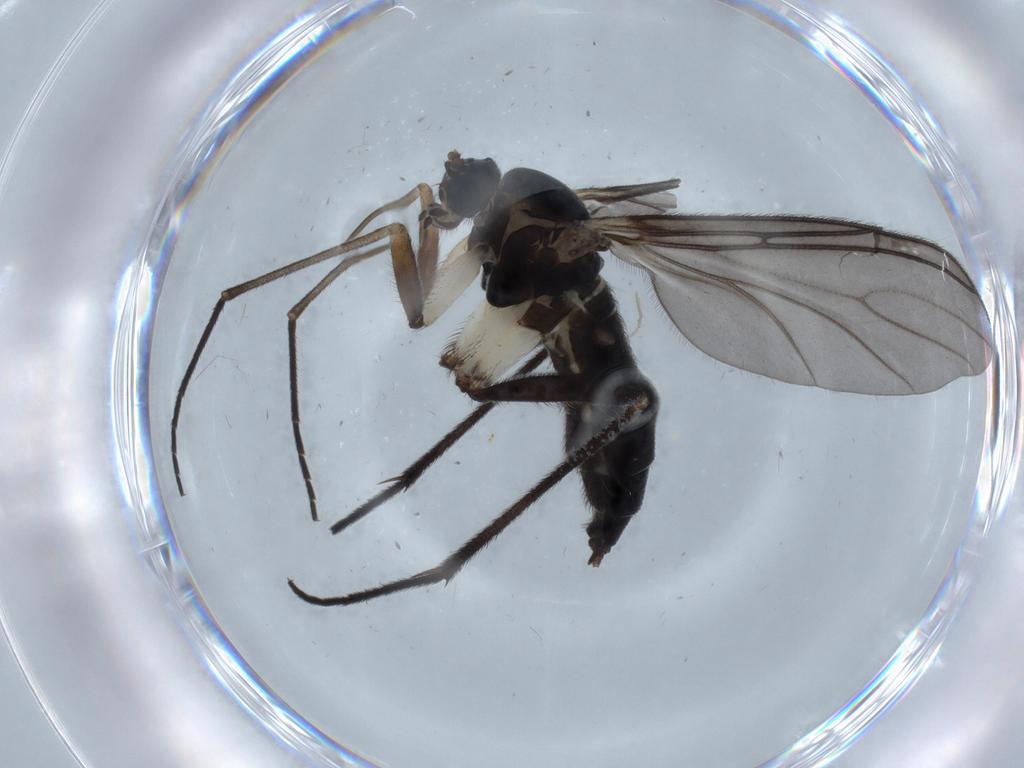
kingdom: Animalia
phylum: Arthropoda
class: Insecta
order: Diptera
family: Sciaridae
